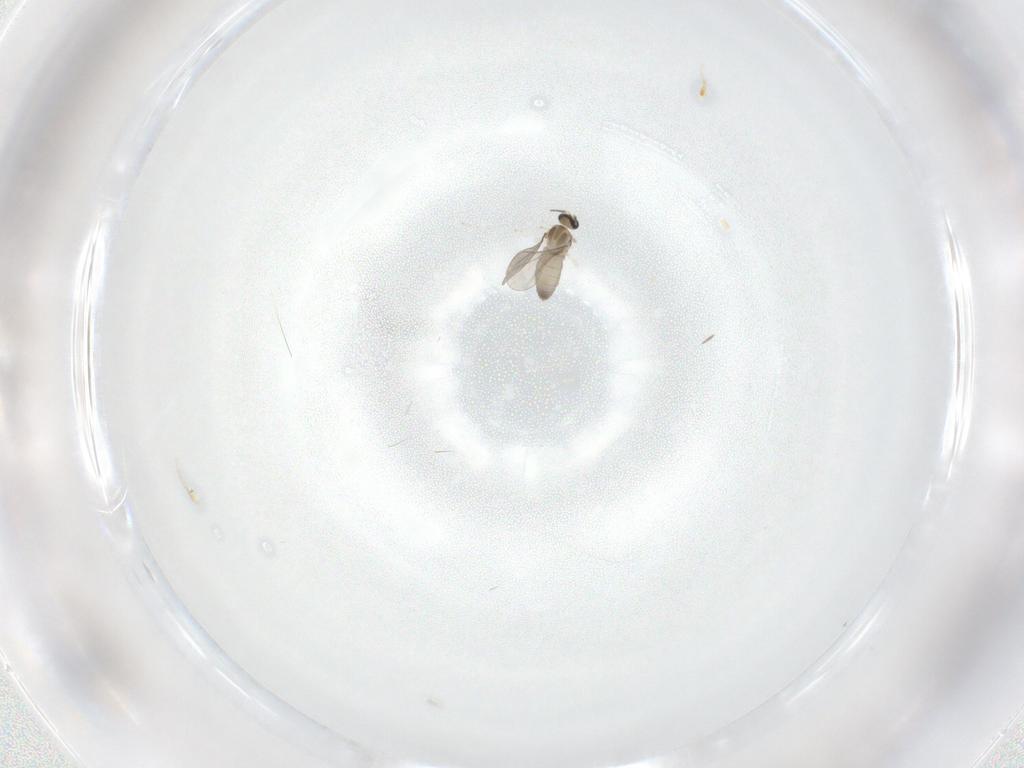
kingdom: Animalia
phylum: Arthropoda
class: Insecta
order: Diptera
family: Cecidomyiidae
